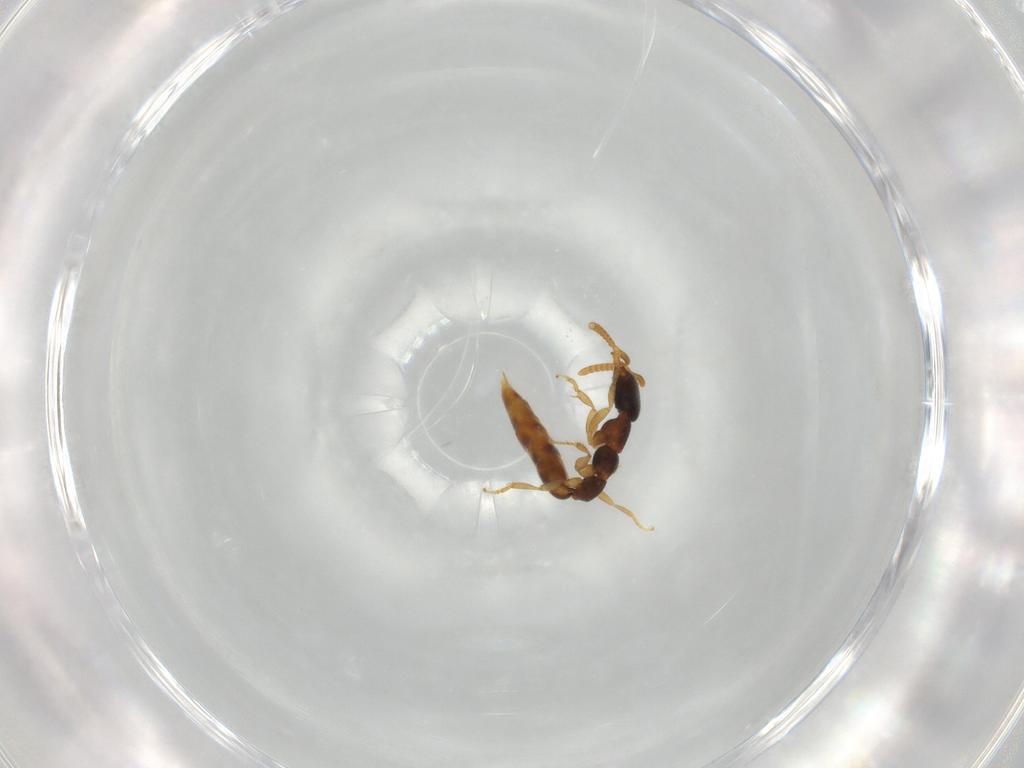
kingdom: Animalia
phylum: Arthropoda
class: Insecta
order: Hymenoptera
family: Bethylidae
